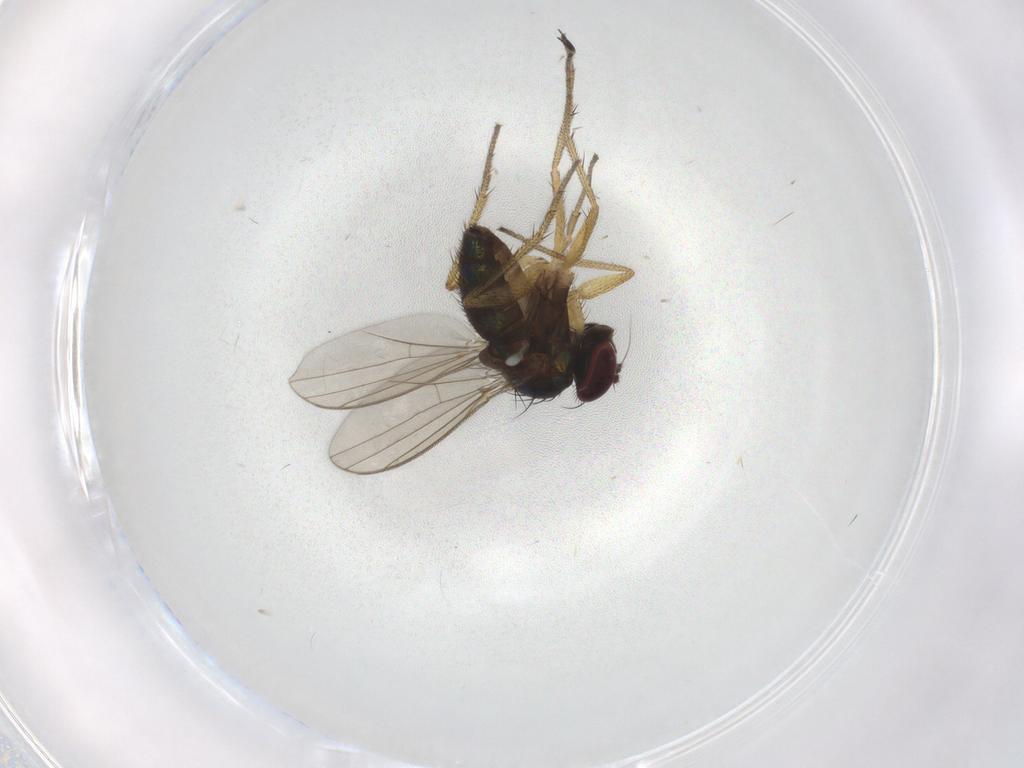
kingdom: Animalia
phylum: Arthropoda
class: Insecta
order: Diptera
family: Dolichopodidae
